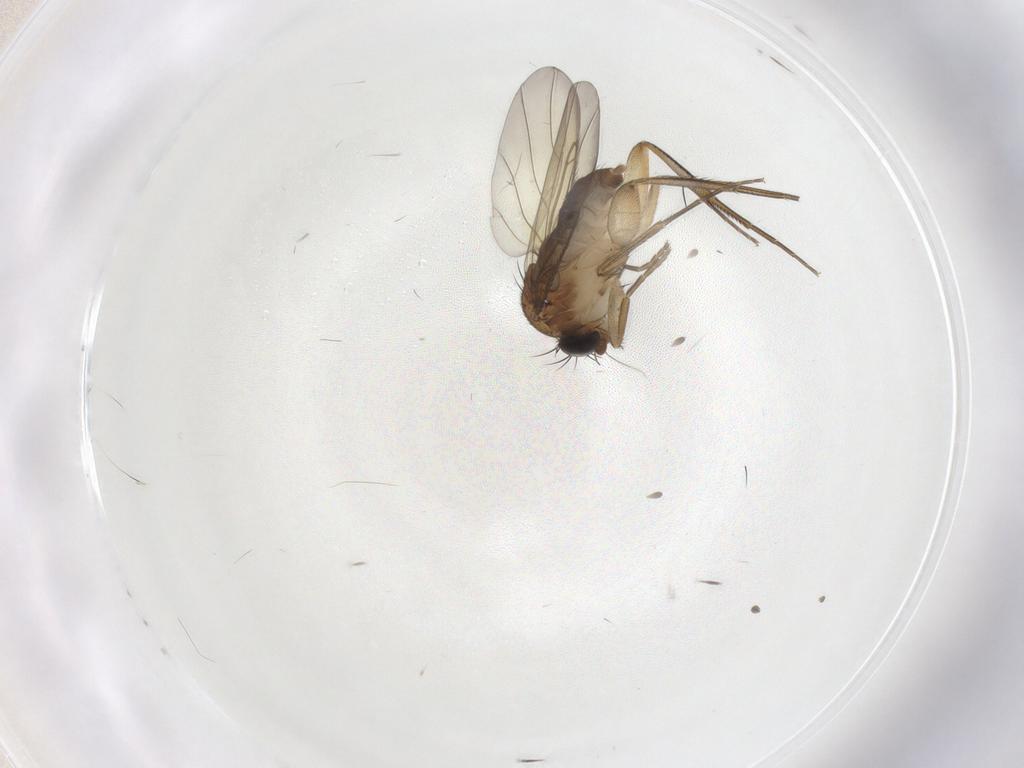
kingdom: Animalia
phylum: Arthropoda
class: Insecta
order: Diptera
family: Phoridae
